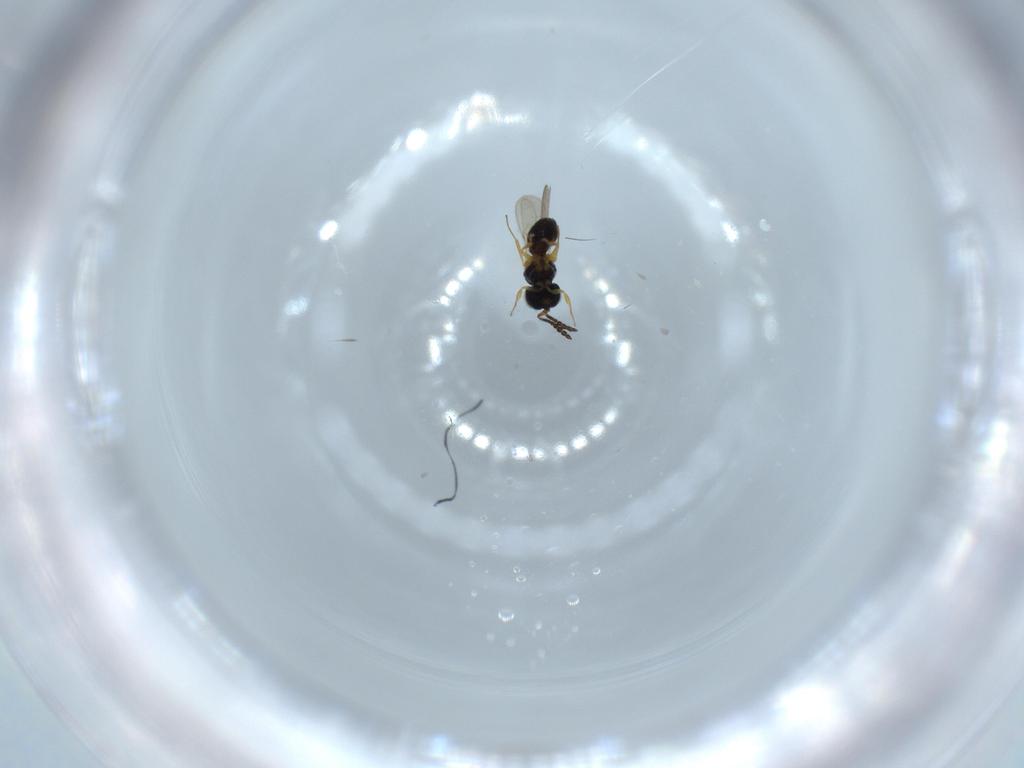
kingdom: Animalia
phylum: Arthropoda
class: Insecta
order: Hymenoptera
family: Scelionidae
